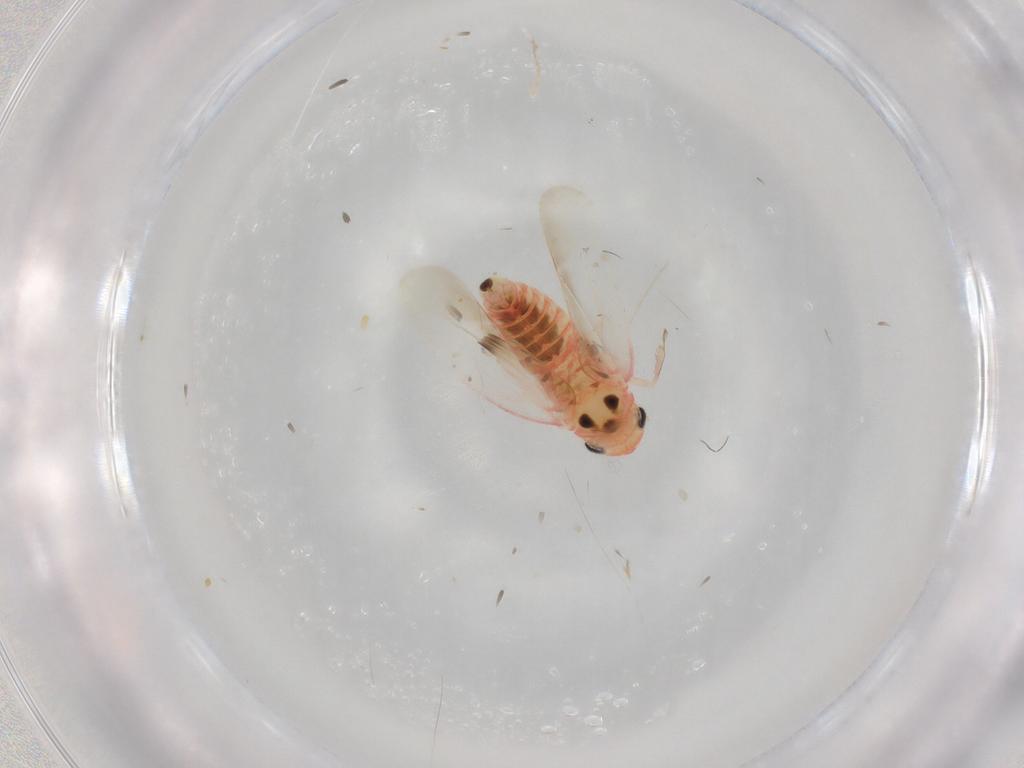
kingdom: Animalia
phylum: Arthropoda
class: Insecta
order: Hemiptera
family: Cicadellidae
